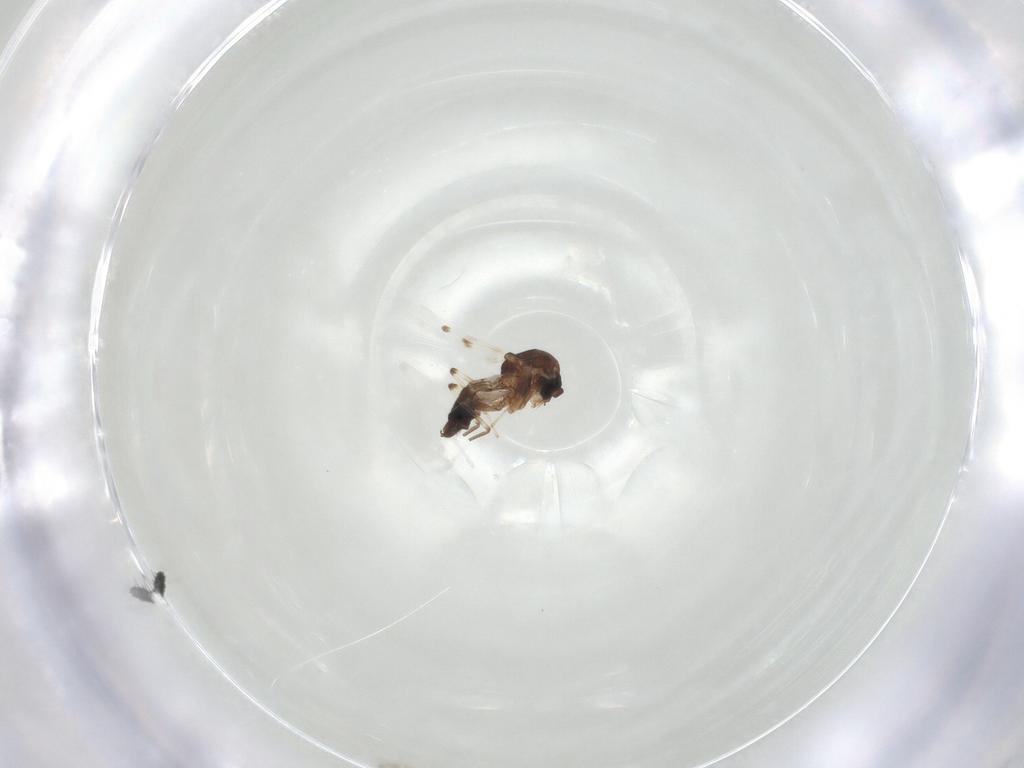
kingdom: Animalia
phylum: Arthropoda
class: Insecta
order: Diptera
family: Ceratopogonidae
